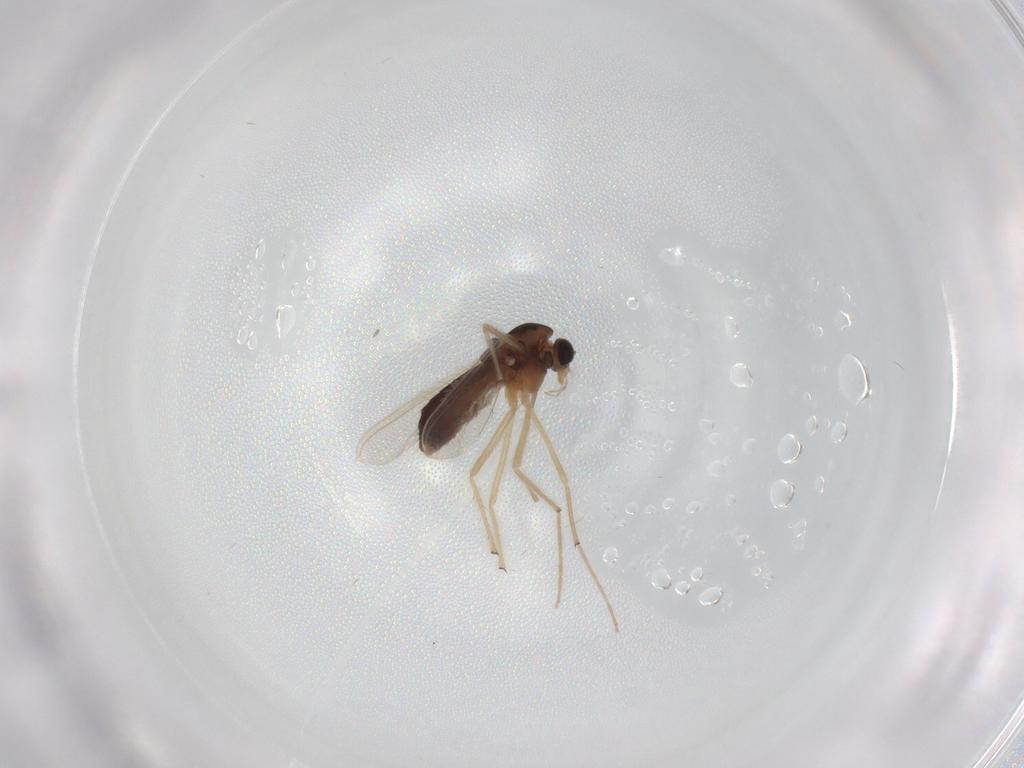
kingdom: Animalia
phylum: Arthropoda
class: Insecta
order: Diptera
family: Chironomidae
